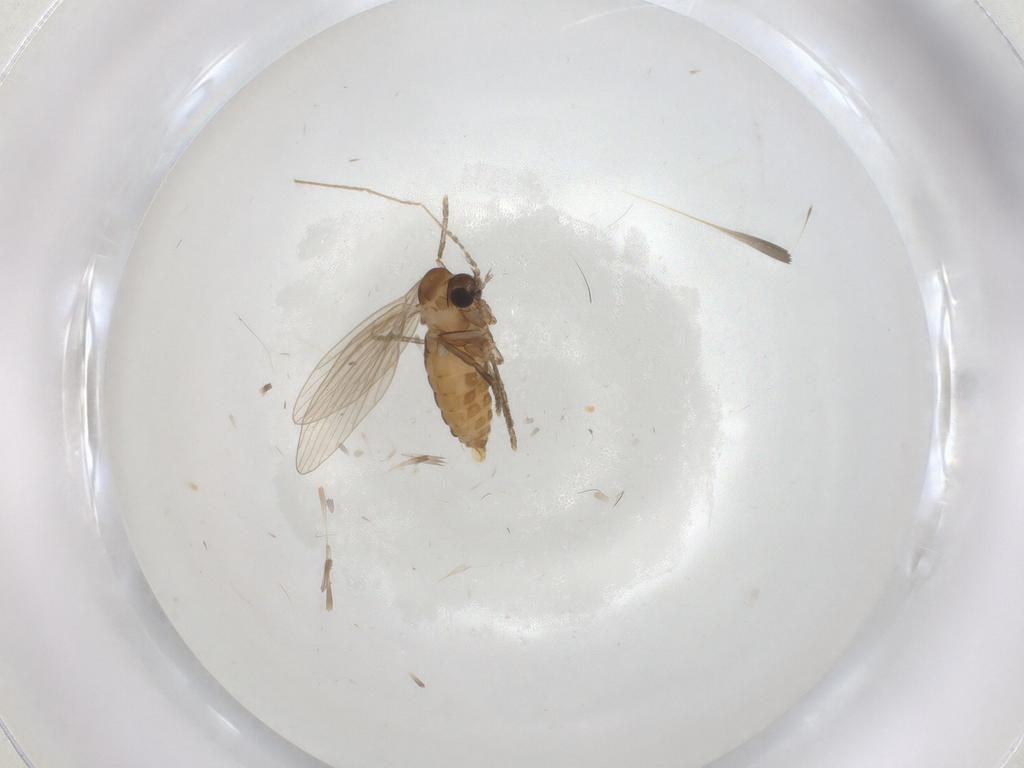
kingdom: Animalia
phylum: Arthropoda
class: Insecta
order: Diptera
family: Psychodidae
